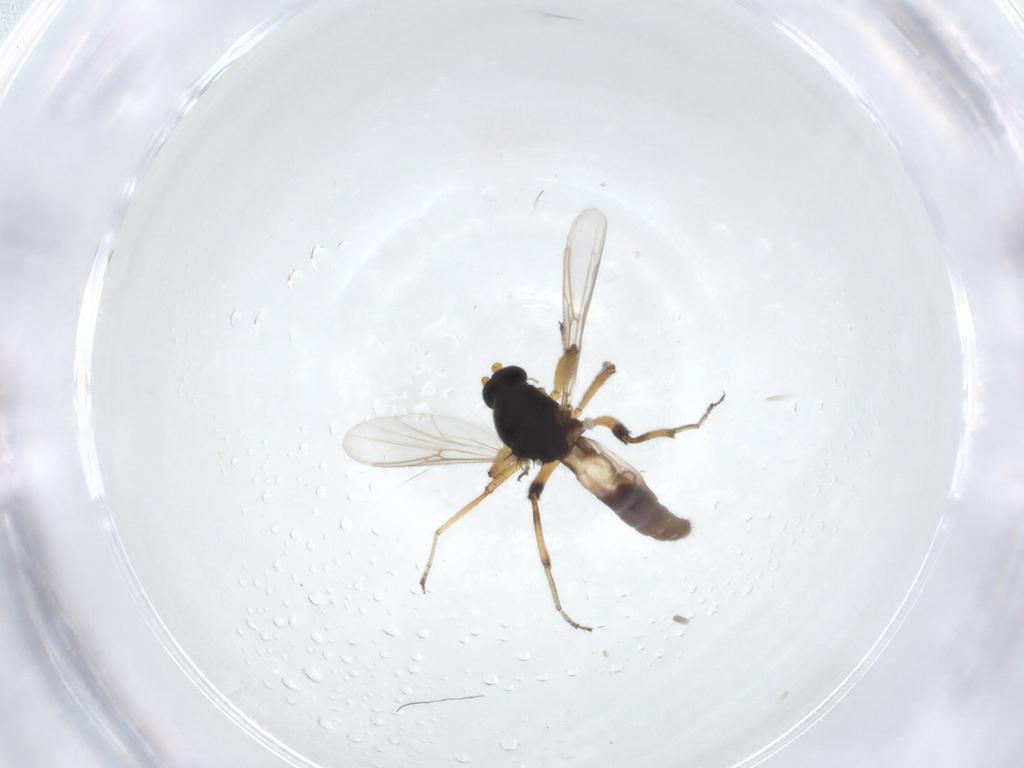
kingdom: Animalia
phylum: Arthropoda
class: Insecta
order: Diptera
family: Ceratopogonidae
